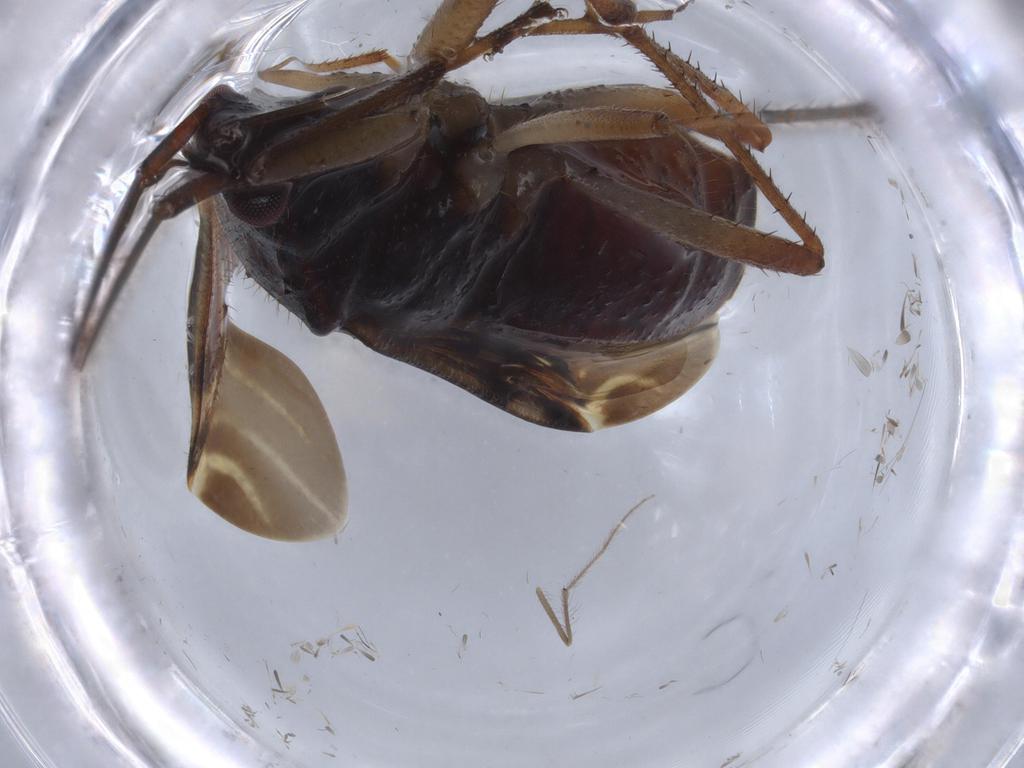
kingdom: Animalia
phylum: Arthropoda
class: Insecta
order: Hemiptera
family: Rhyparochromidae
